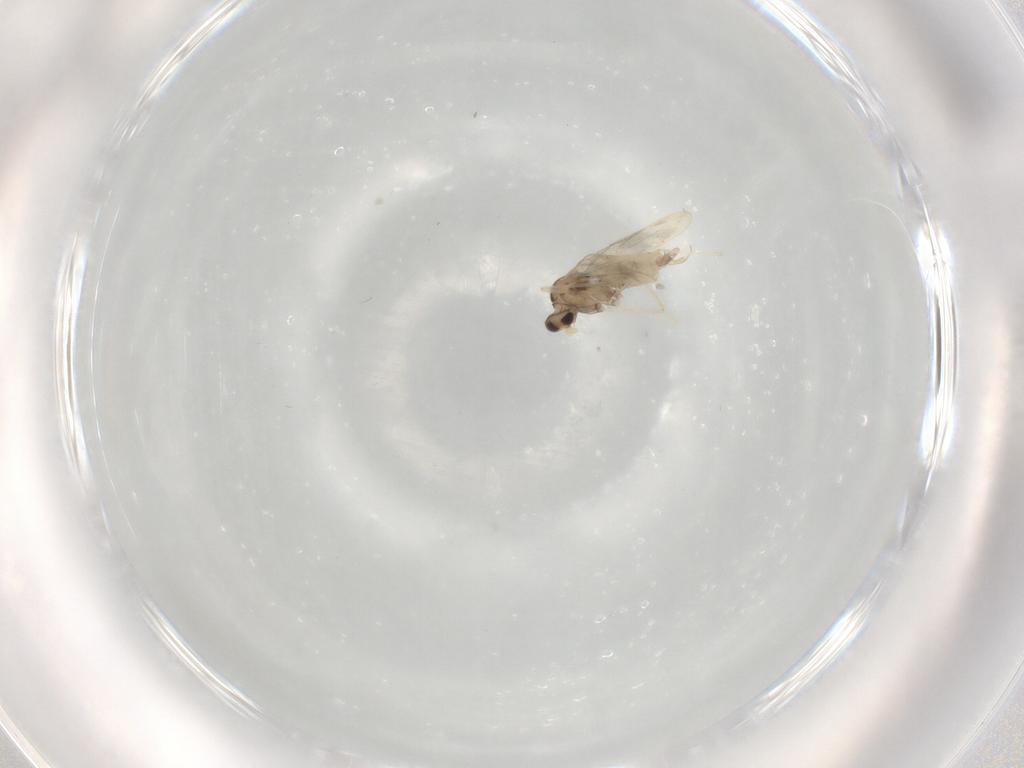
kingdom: Animalia
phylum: Arthropoda
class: Insecta
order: Diptera
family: Cecidomyiidae
